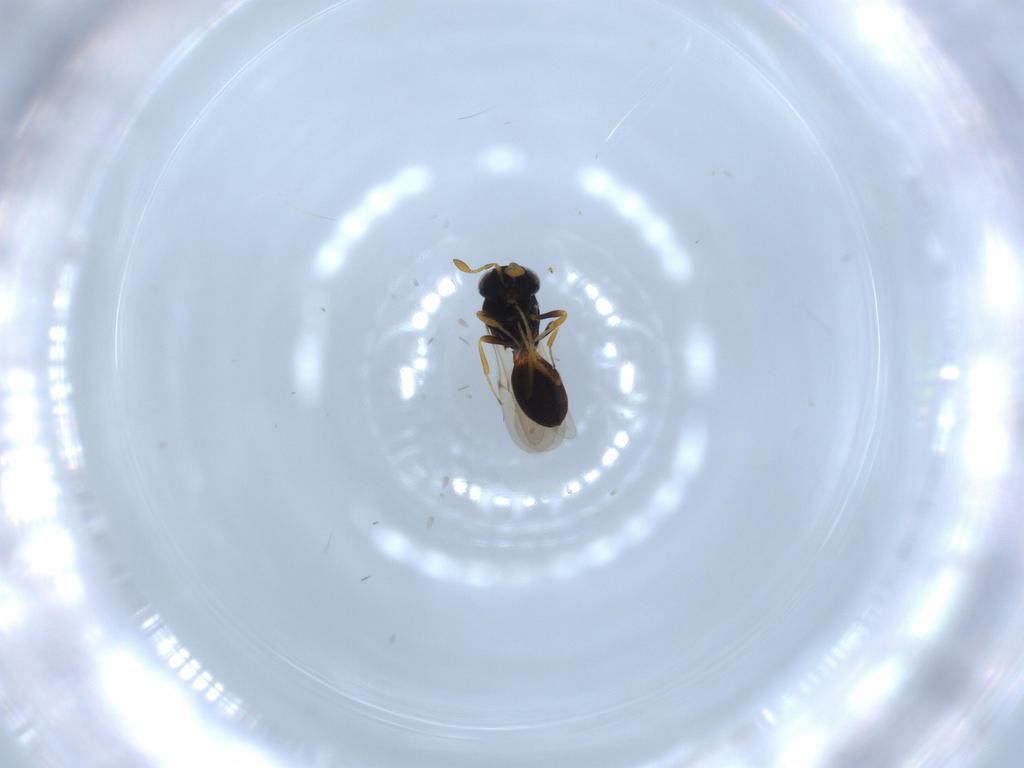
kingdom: Animalia
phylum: Arthropoda
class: Insecta
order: Hymenoptera
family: Formicidae
